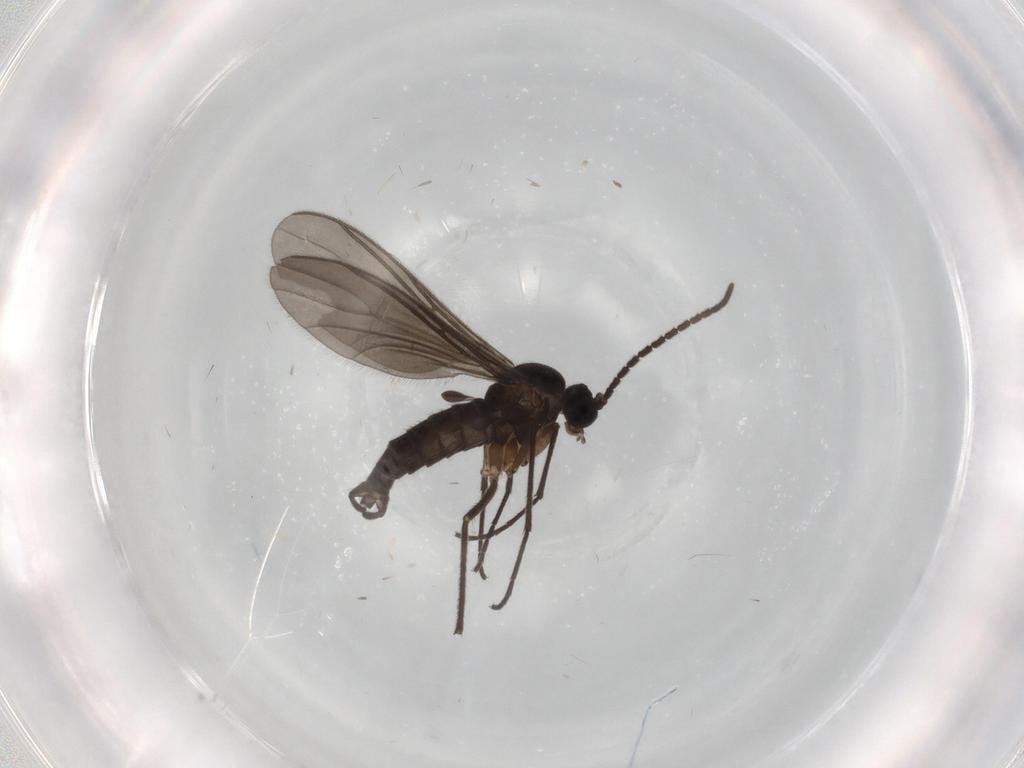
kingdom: Animalia
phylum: Arthropoda
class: Insecta
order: Diptera
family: Sciaridae
